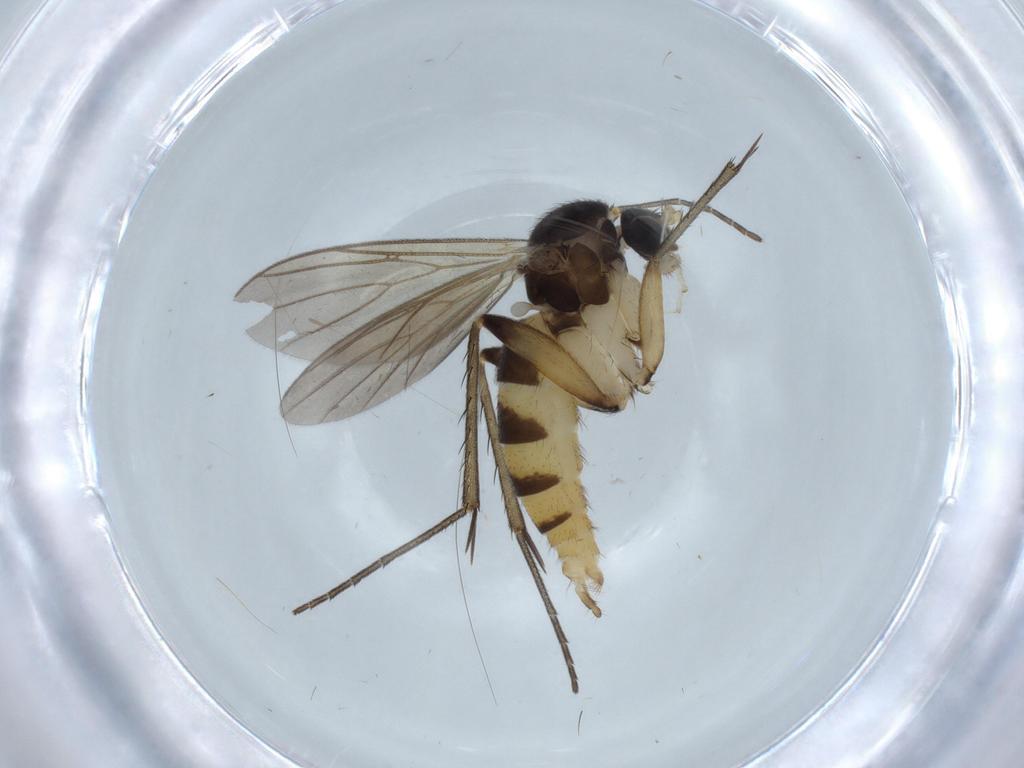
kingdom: Animalia
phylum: Arthropoda
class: Insecta
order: Diptera
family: Mycetophilidae
